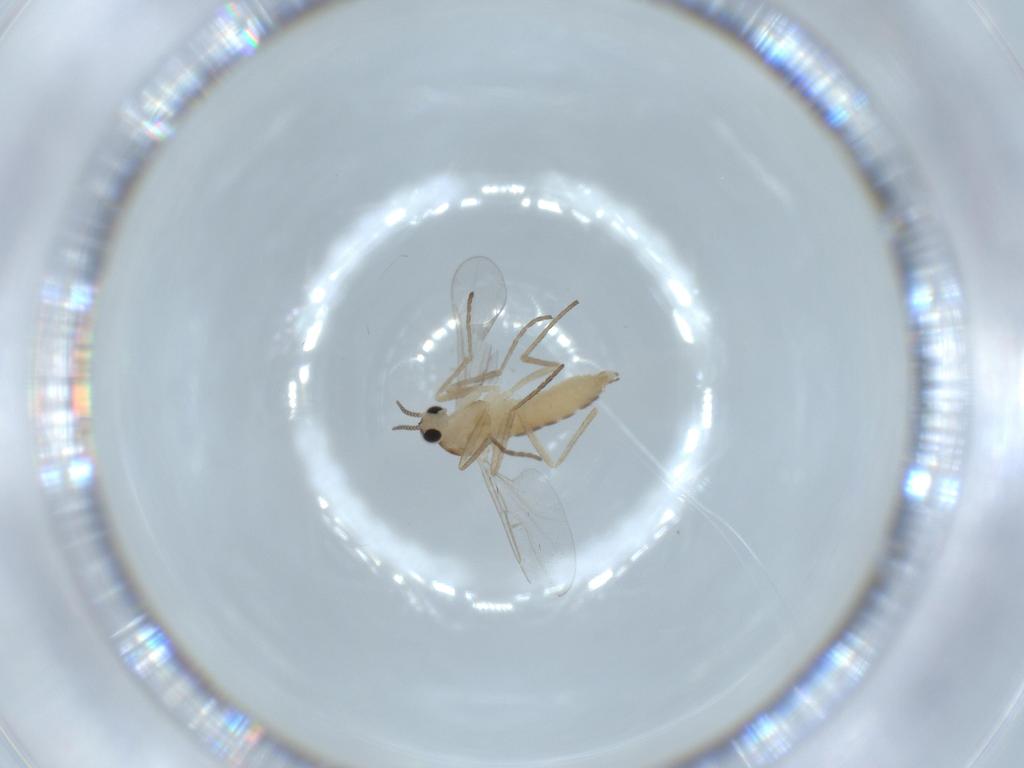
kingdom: Animalia
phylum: Arthropoda
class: Insecta
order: Diptera
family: Cecidomyiidae
